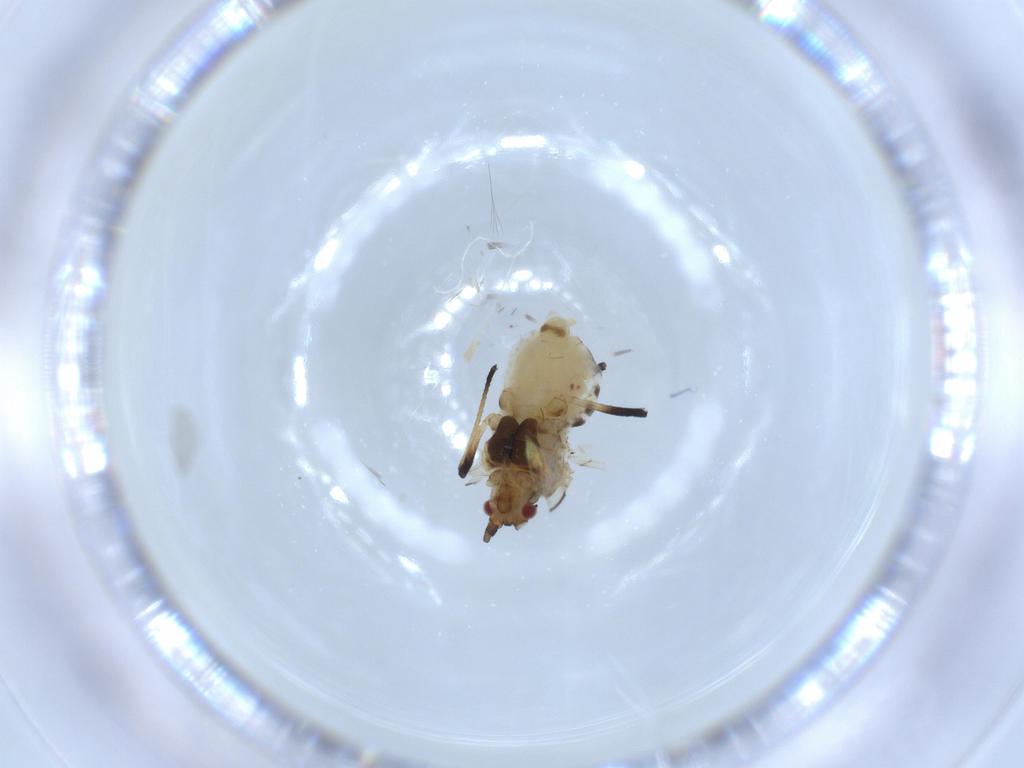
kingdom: Animalia
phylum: Arthropoda
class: Insecta
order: Hemiptera
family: Aphididae
